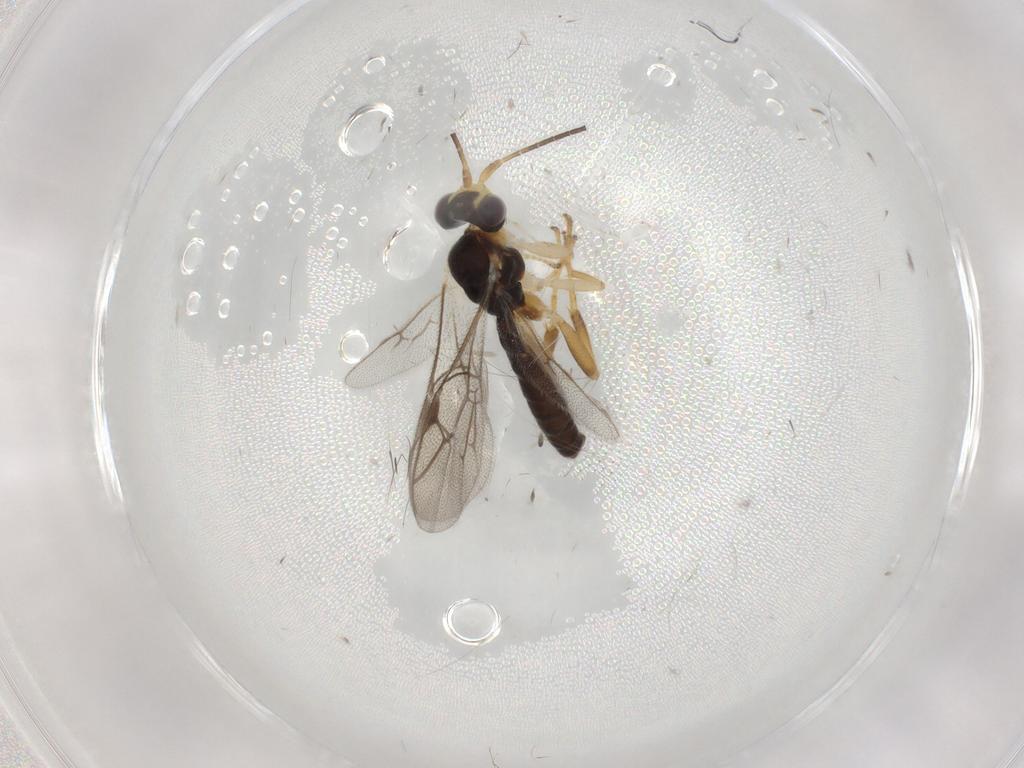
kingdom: Animalia
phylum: Arthropoda
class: Insecta
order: Hymenoptera
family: Ichneumonidae
